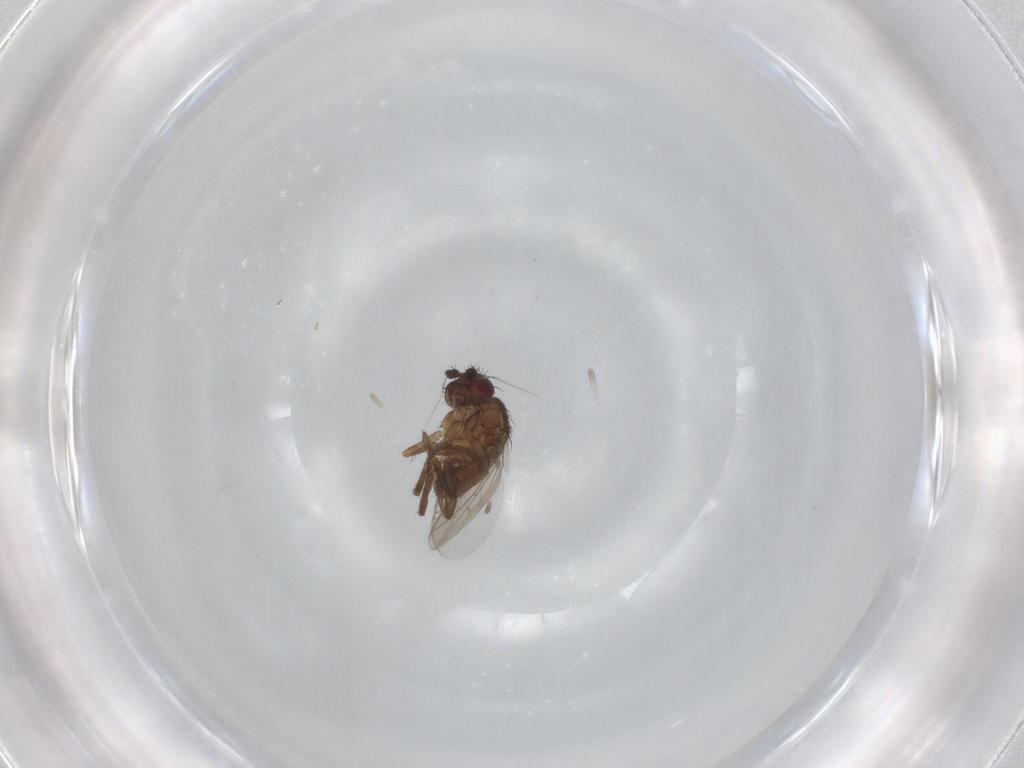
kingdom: Animalia
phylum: Arthropoda
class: Insecta
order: Diptera
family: Sphaeroceridae
